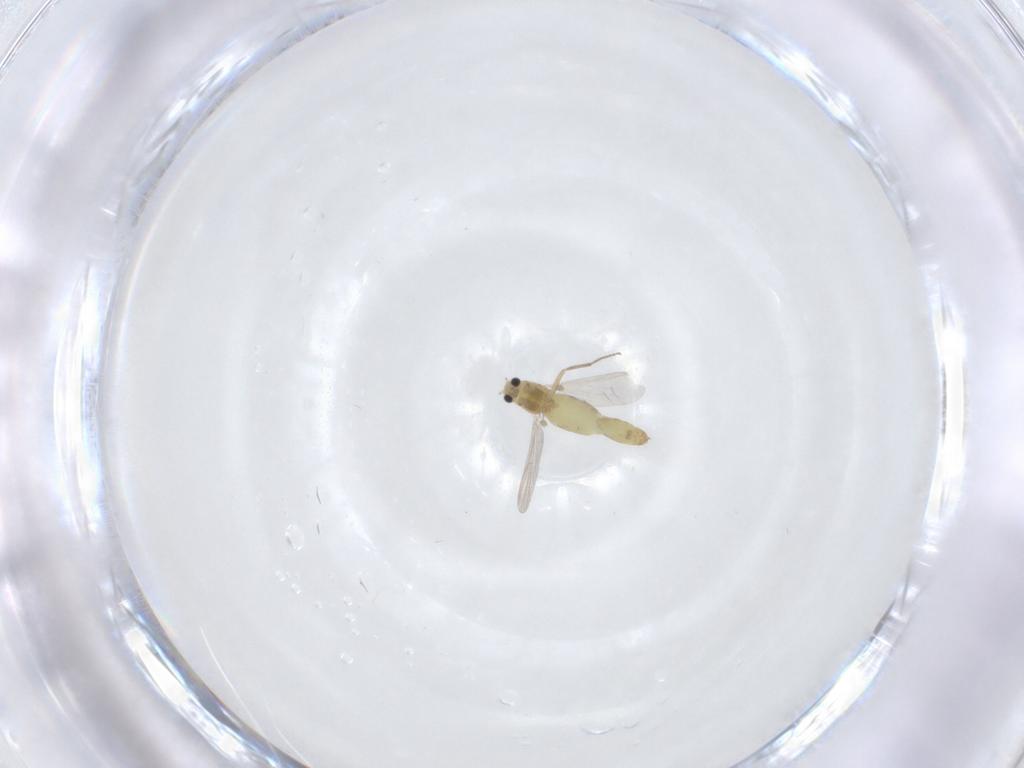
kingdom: Animalia
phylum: Arthropoda
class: Insecta
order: Diptera
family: Chironomidae
